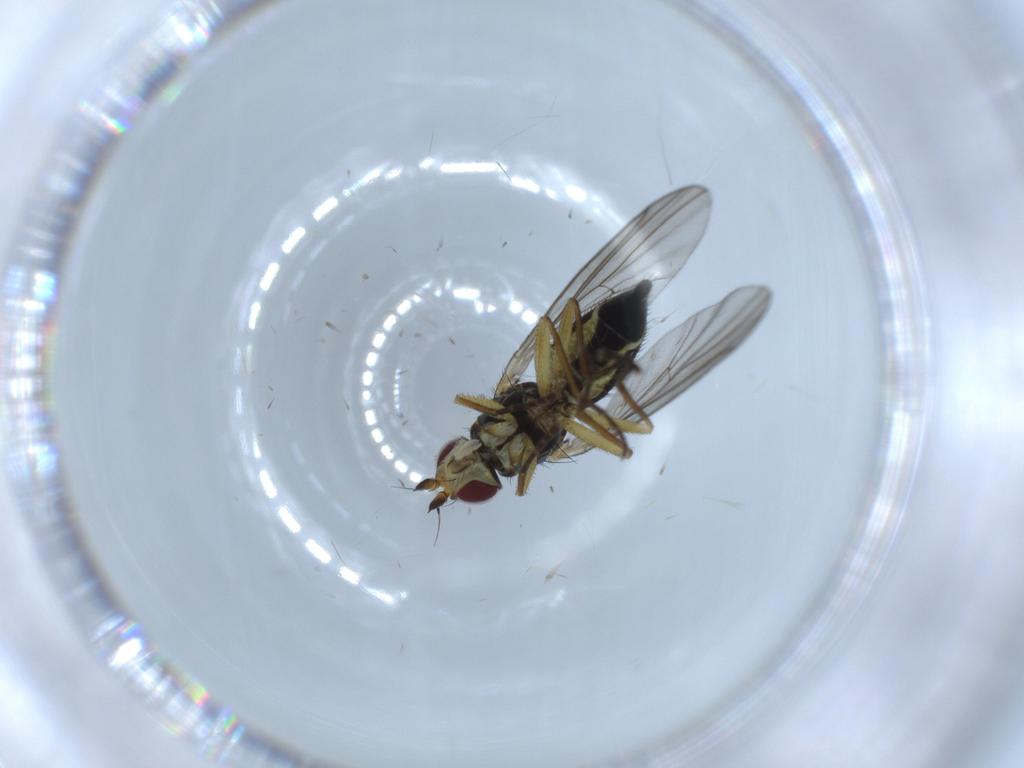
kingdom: Animalia
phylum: Arthropoda
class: Insecta
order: Diptera
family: Agromyzidae
